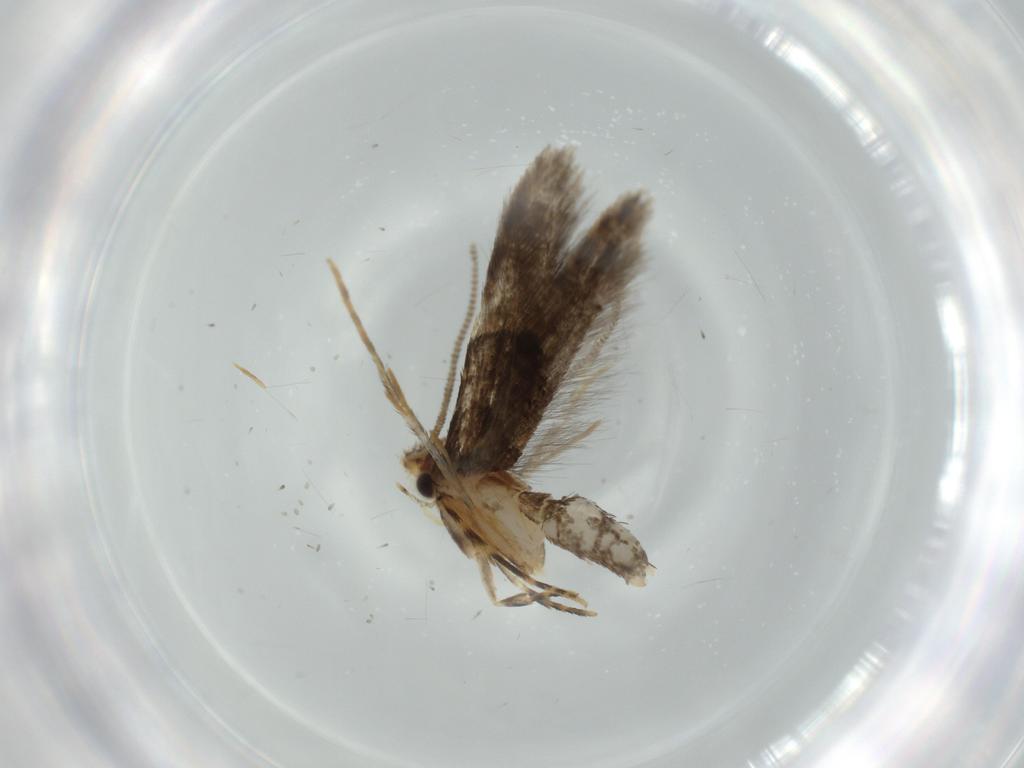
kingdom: Animalia
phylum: Arthropoda
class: Insecta
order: Lepidoptera
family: Tineidae
